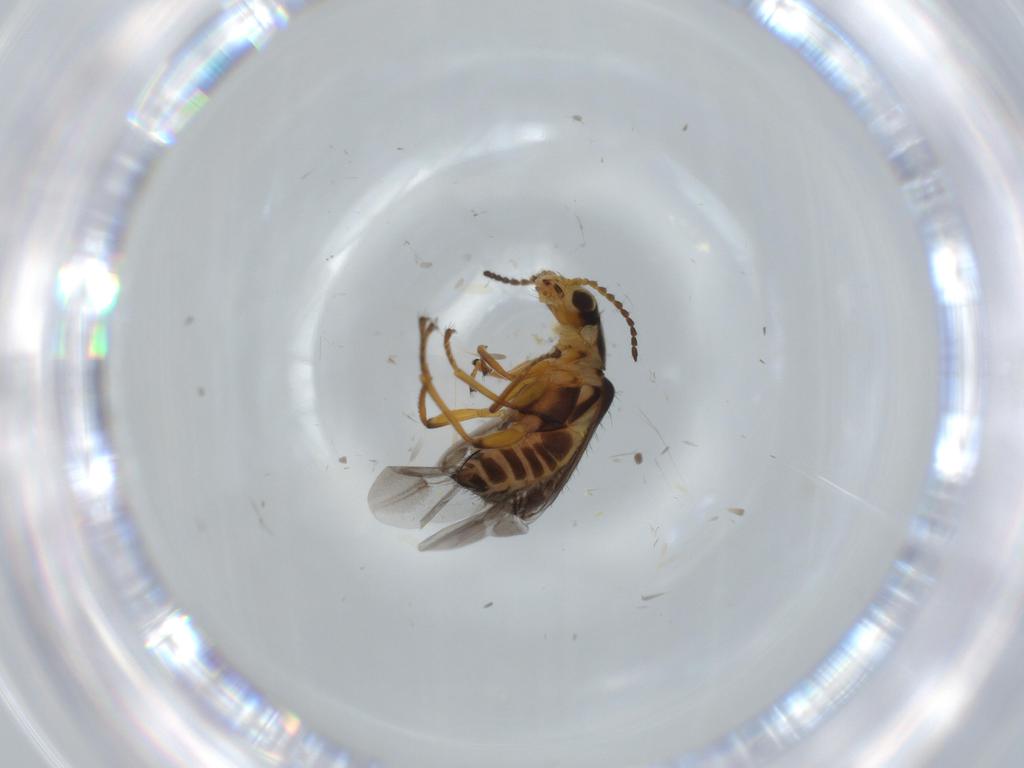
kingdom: Animalia
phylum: Arthropoda
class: Insecta
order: Coleoptera
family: Melyridae
